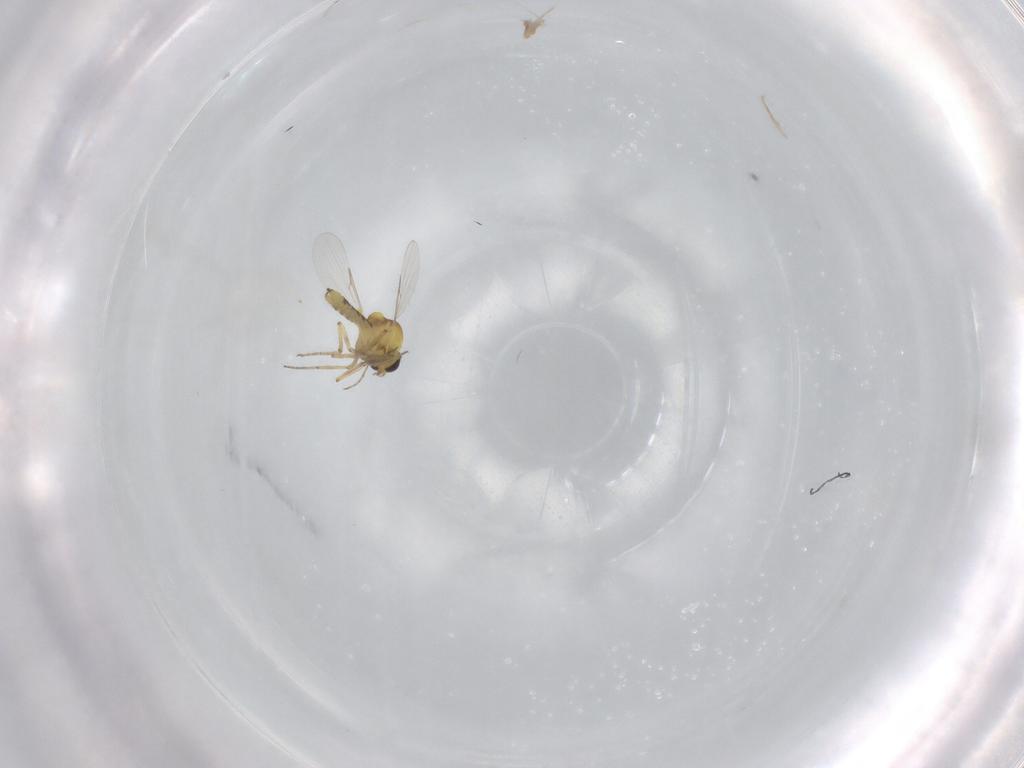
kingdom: Animalia
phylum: Arthropoda
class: Insecta
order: Diptera
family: Ceratopogonidae
